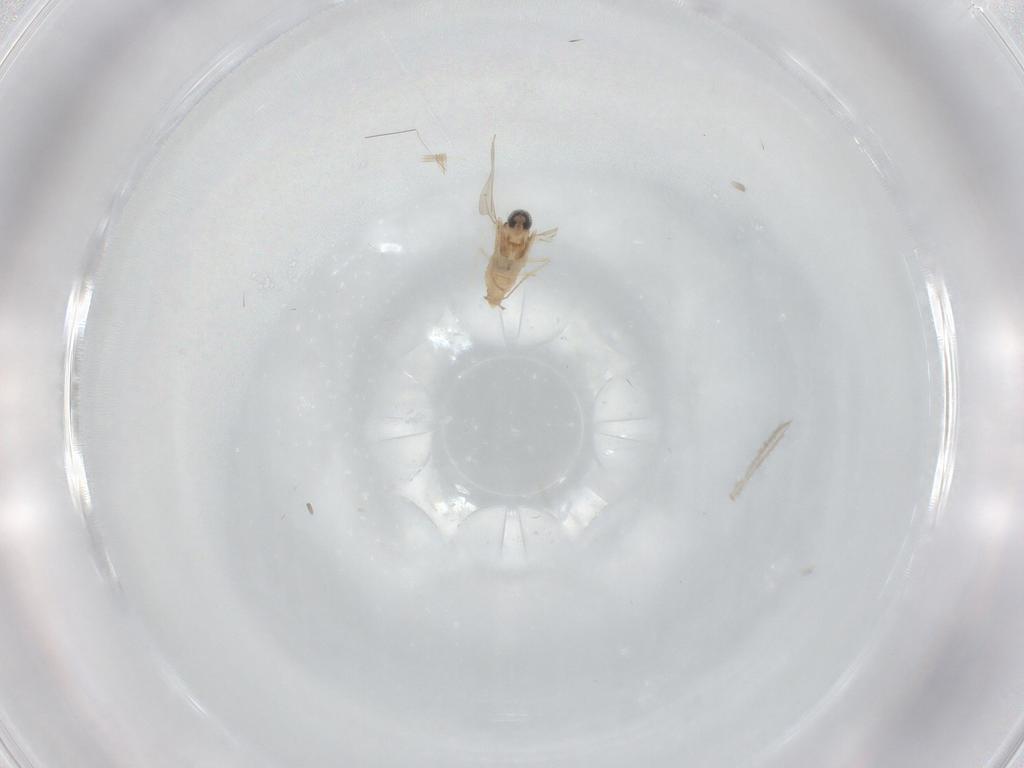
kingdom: Animalia
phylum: Arthropoda
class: Insecta
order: Diptera
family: Cecidomyiidae
